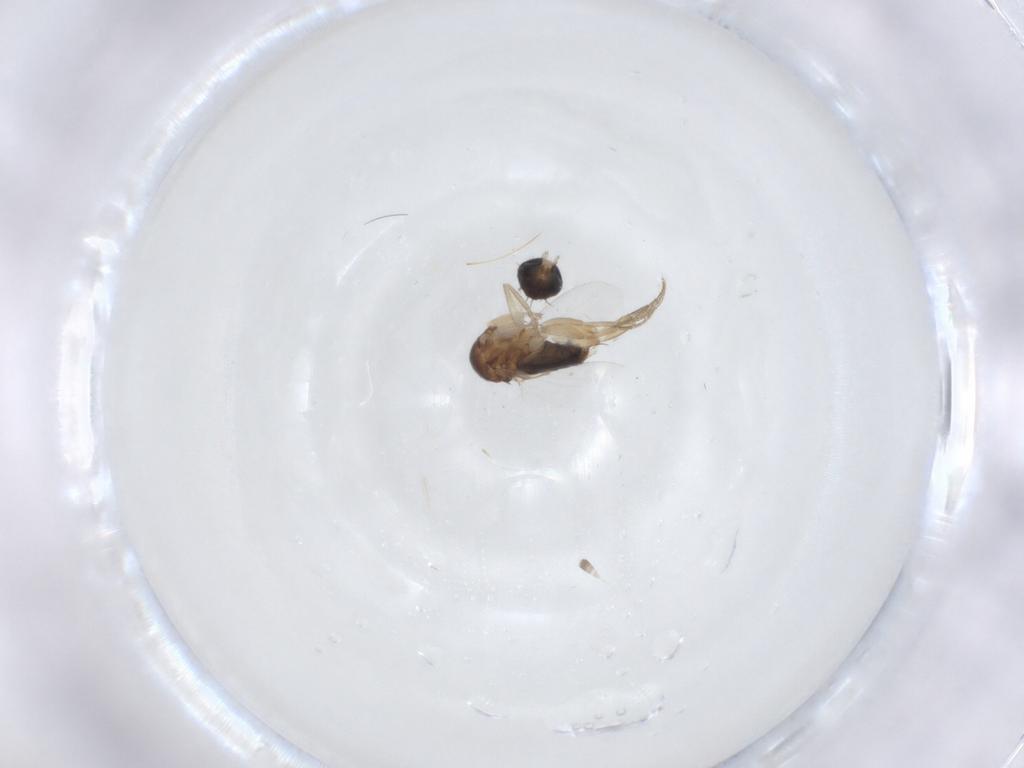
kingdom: Animalia
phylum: Arthropoda
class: Insecta
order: Diptera
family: Phoridae
